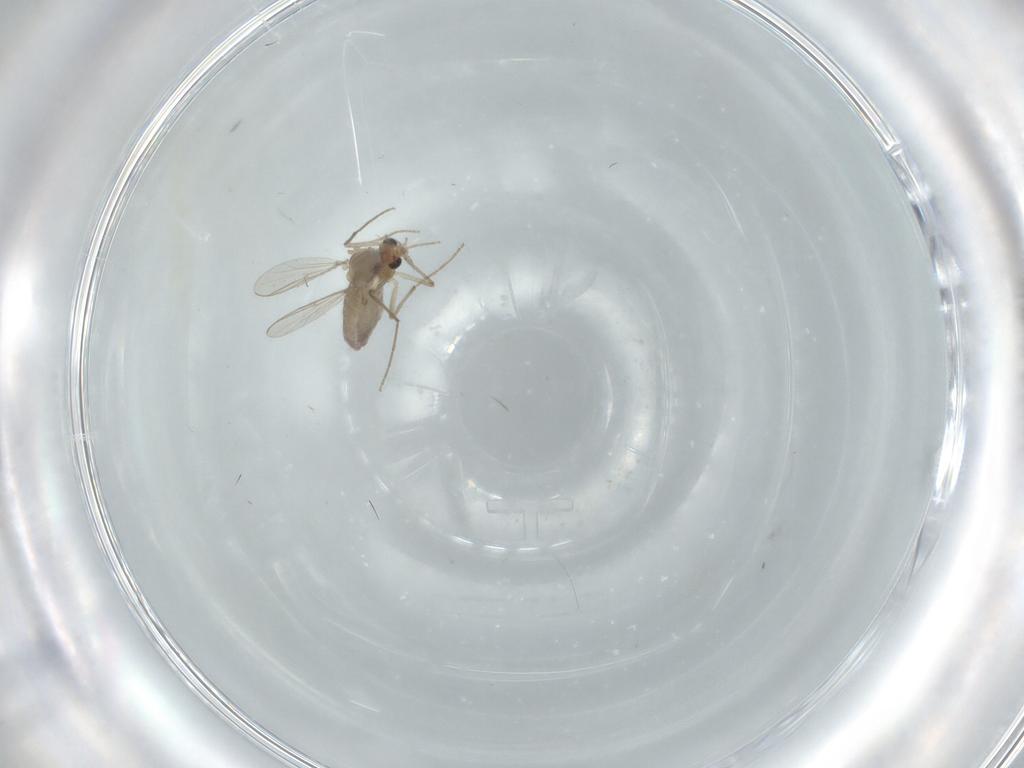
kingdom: Animalia
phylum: Arthropoda
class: Insecta
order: Diptera
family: Chironomidae
